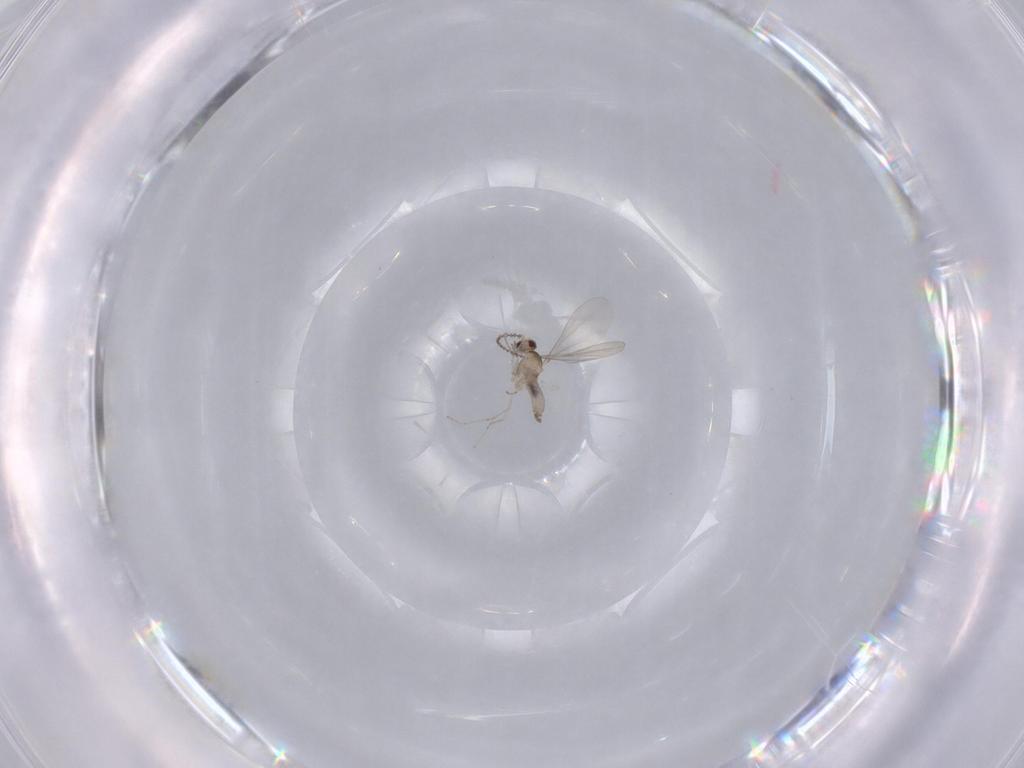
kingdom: Animalia
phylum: Arthropoda
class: Insecta
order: Diptera
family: Cecidomyiidae
